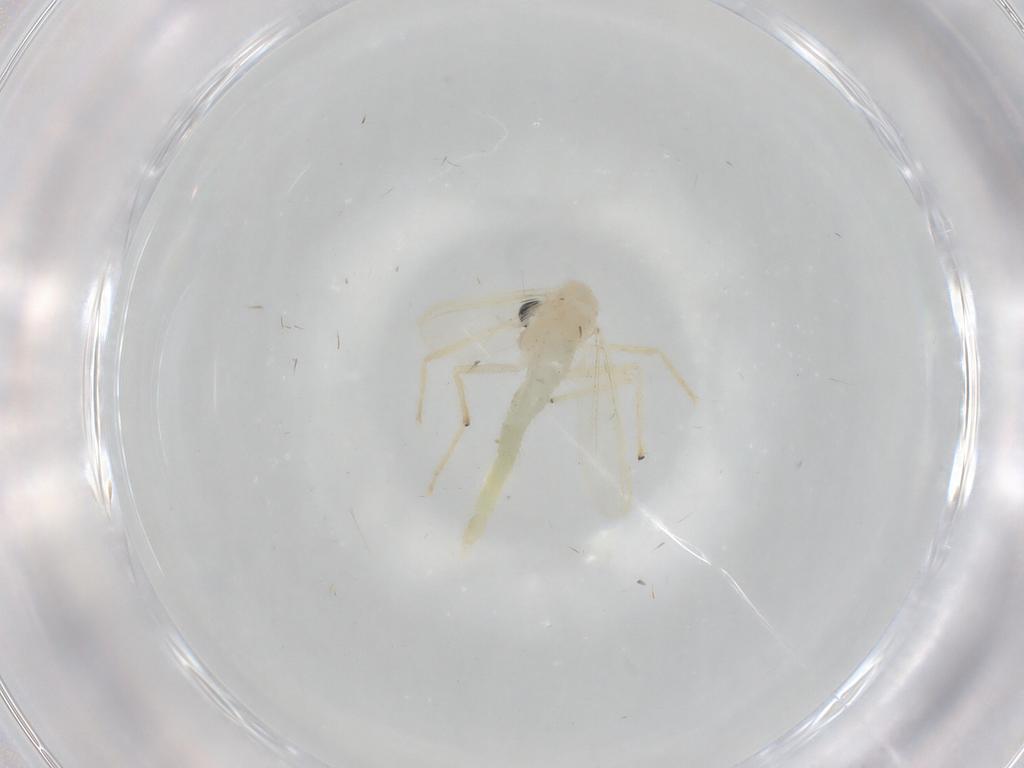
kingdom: Animalia
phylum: Arthropoda
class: Insecta
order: Diptera
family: Chironomidae
